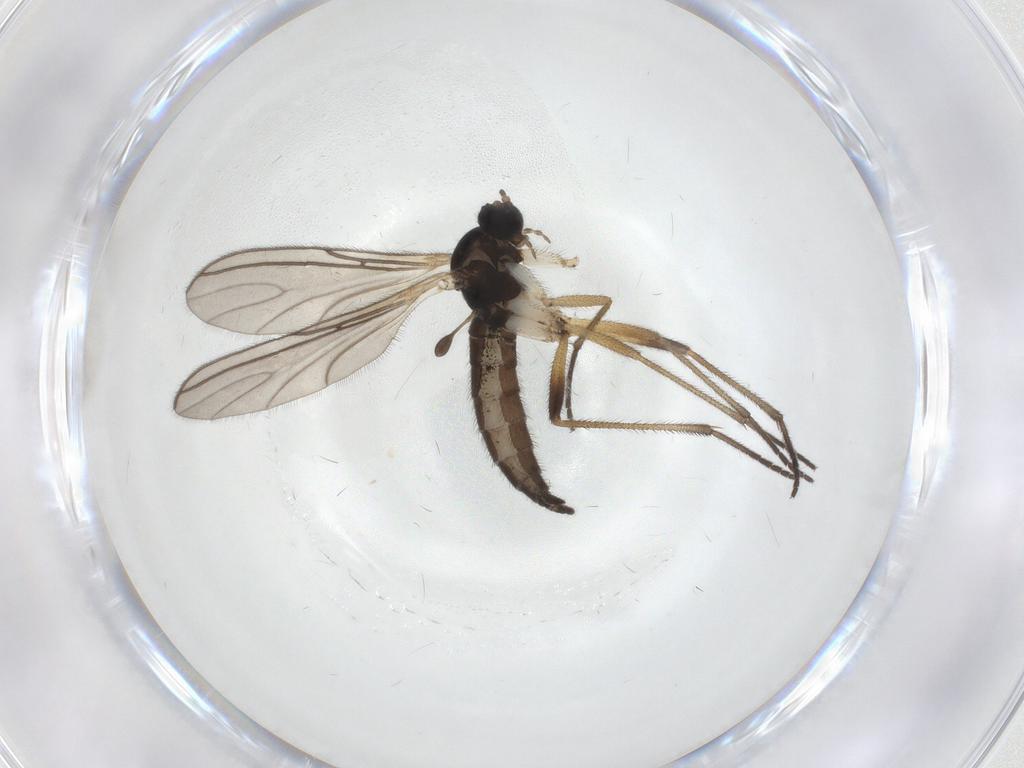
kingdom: Animalia
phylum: Arthropoda
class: Insecta
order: Diptera
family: Sciaridae
